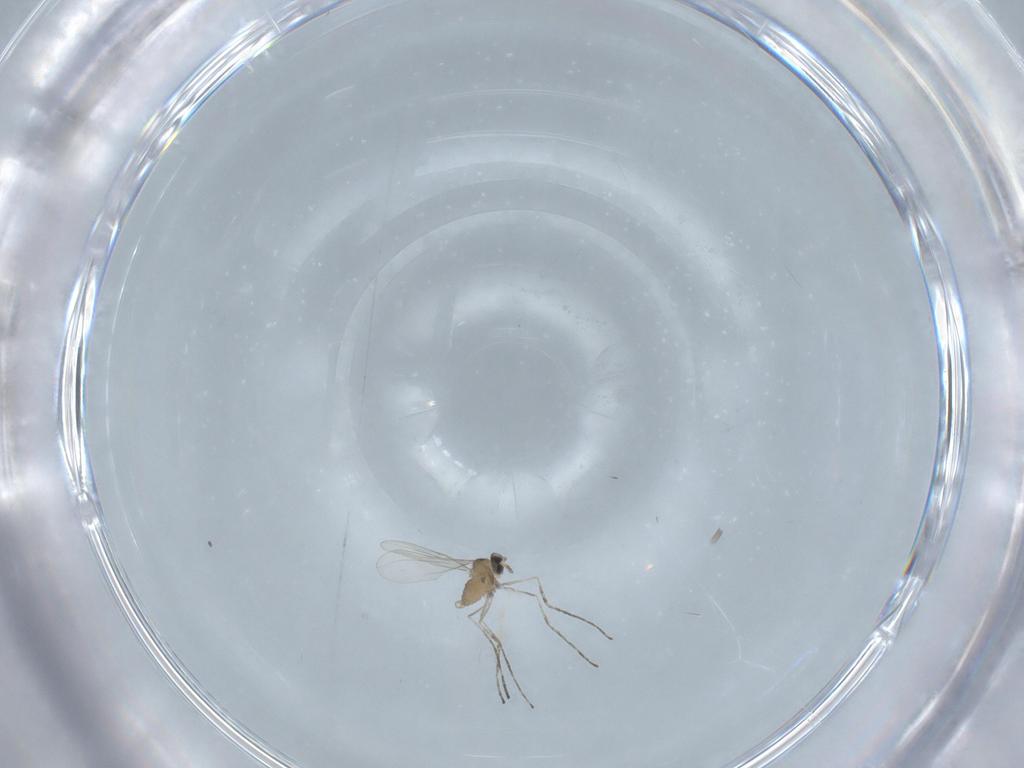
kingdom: Animalia
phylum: Arthropoda
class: Insecta
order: Diptera
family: Cecidomyiidae
